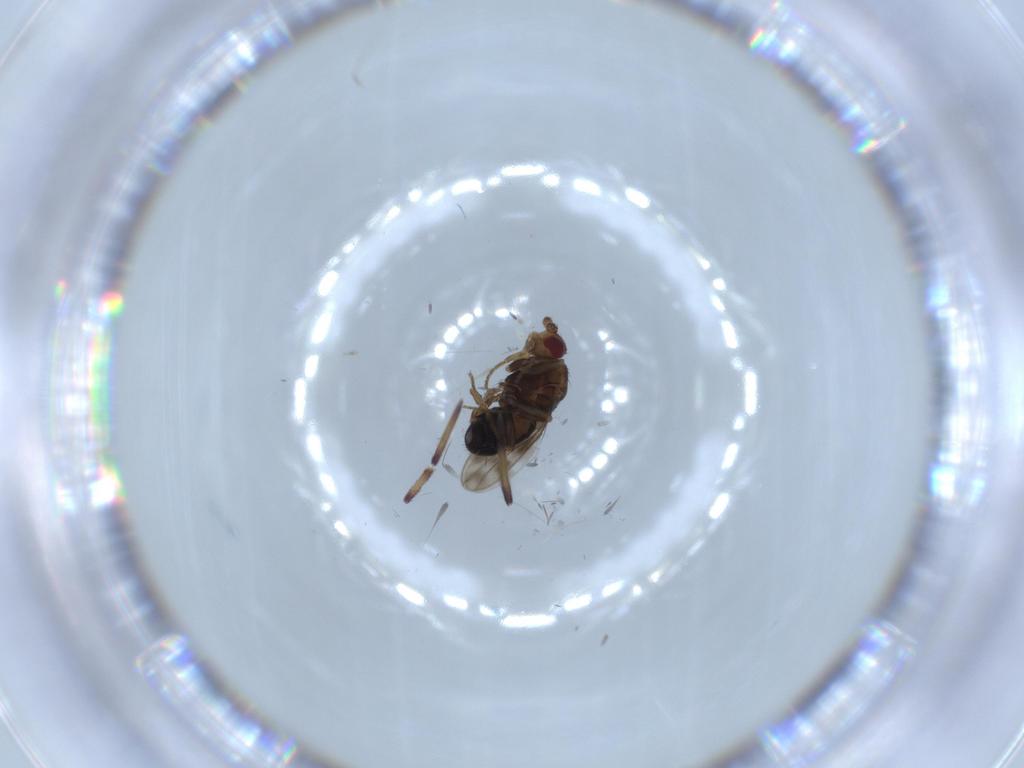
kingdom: Animalia
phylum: Arthropoda
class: Insecta
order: Diptera
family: Sphaeroceridae
